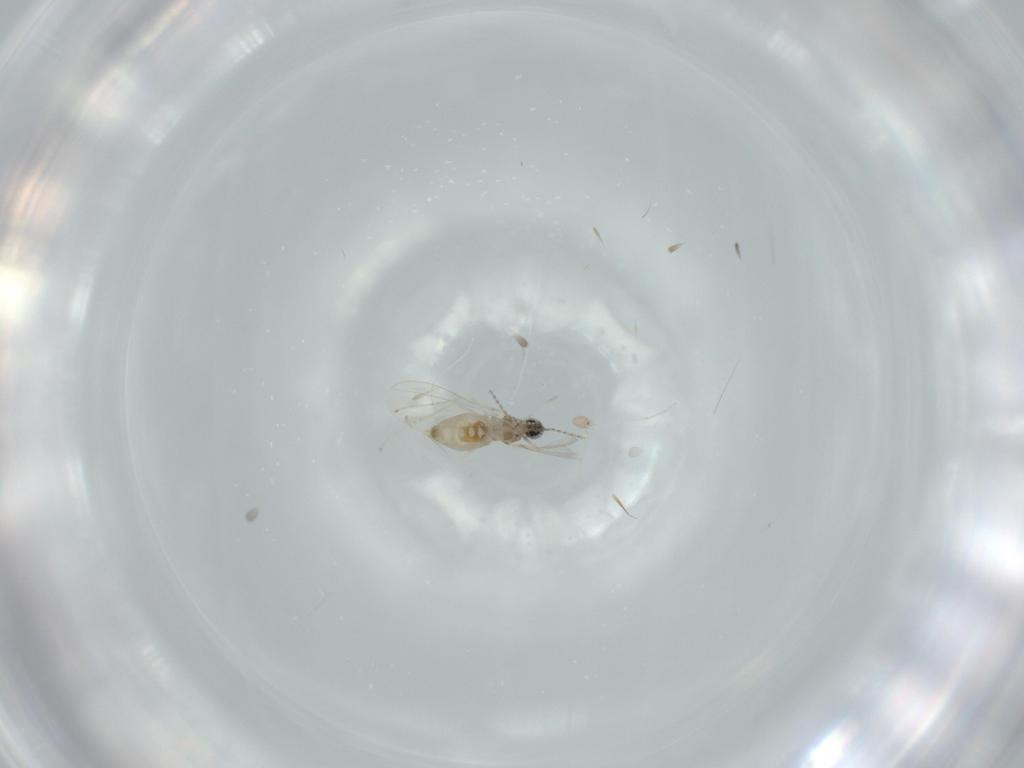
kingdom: Animalia
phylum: Arthropoda
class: Insecta
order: Diptera
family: Cecidomyiidae
